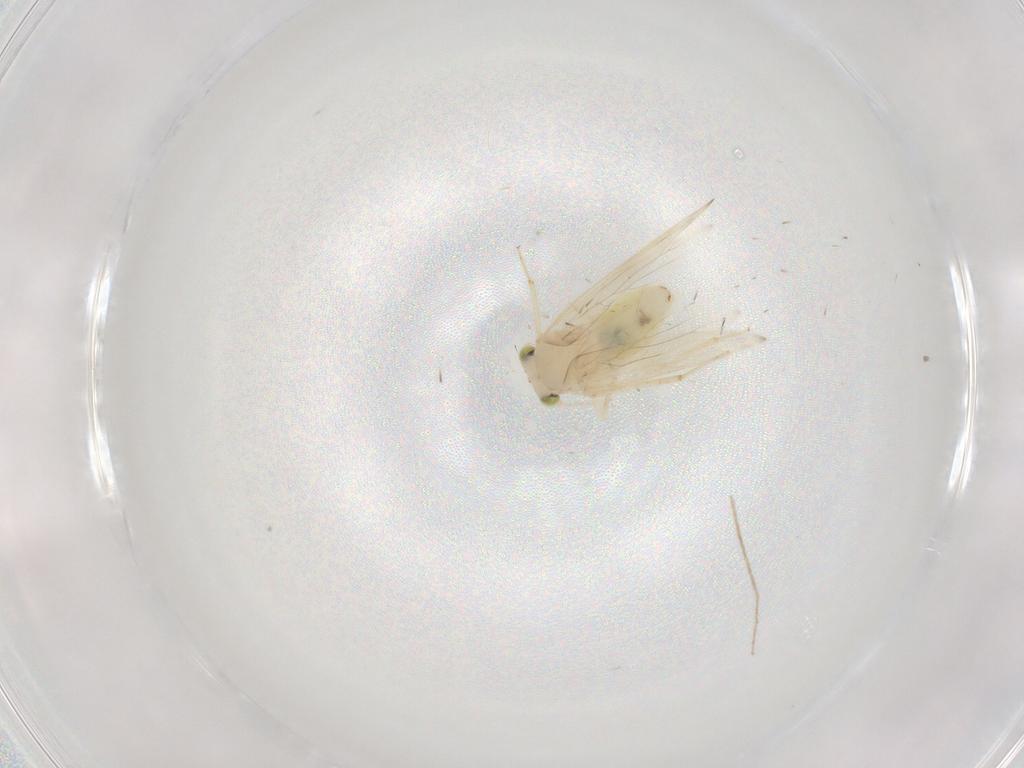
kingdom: Animalia
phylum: Arthropoda
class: Insecta
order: Psocodea
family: Lepidopsocidae
